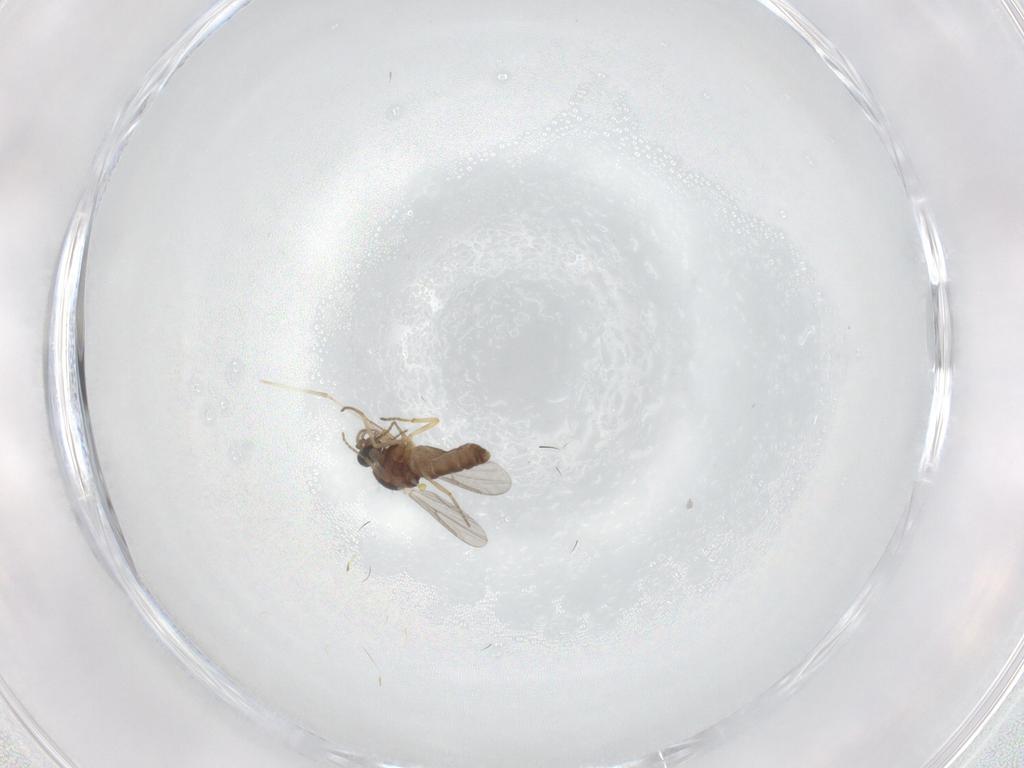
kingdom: Animalia
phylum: Arthropoda
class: Insecta
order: Diptera
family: Ceratopogonidae
